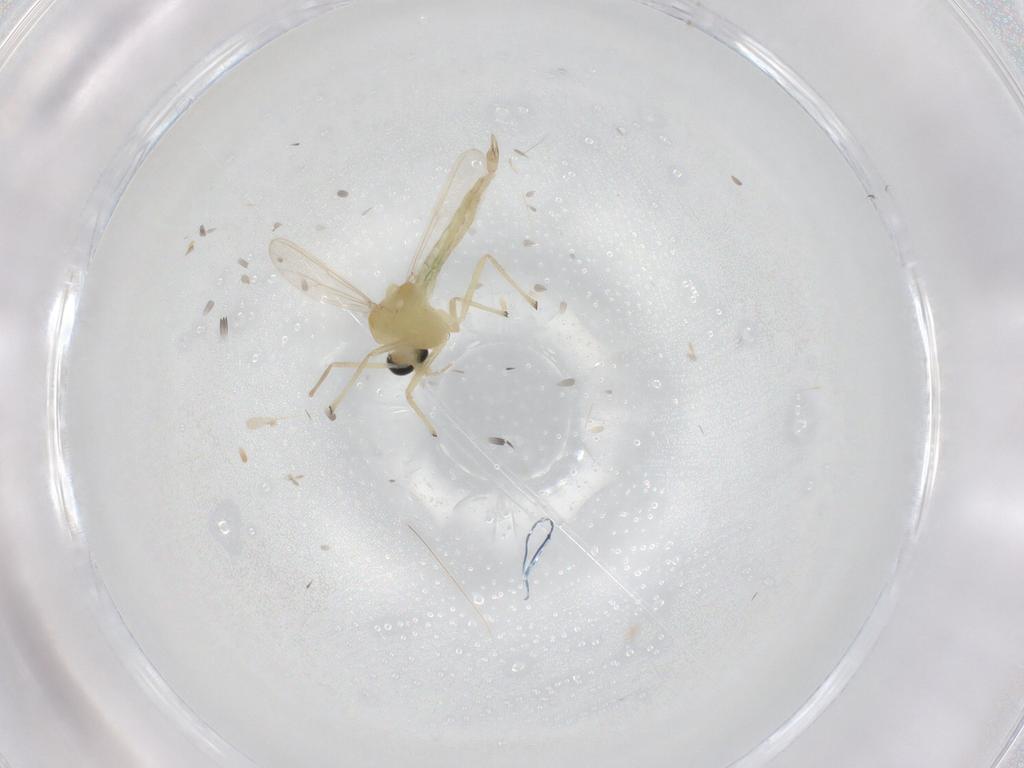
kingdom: Animalia
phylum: Arthropoda
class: Insecta
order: Diptera
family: Chironomidae
